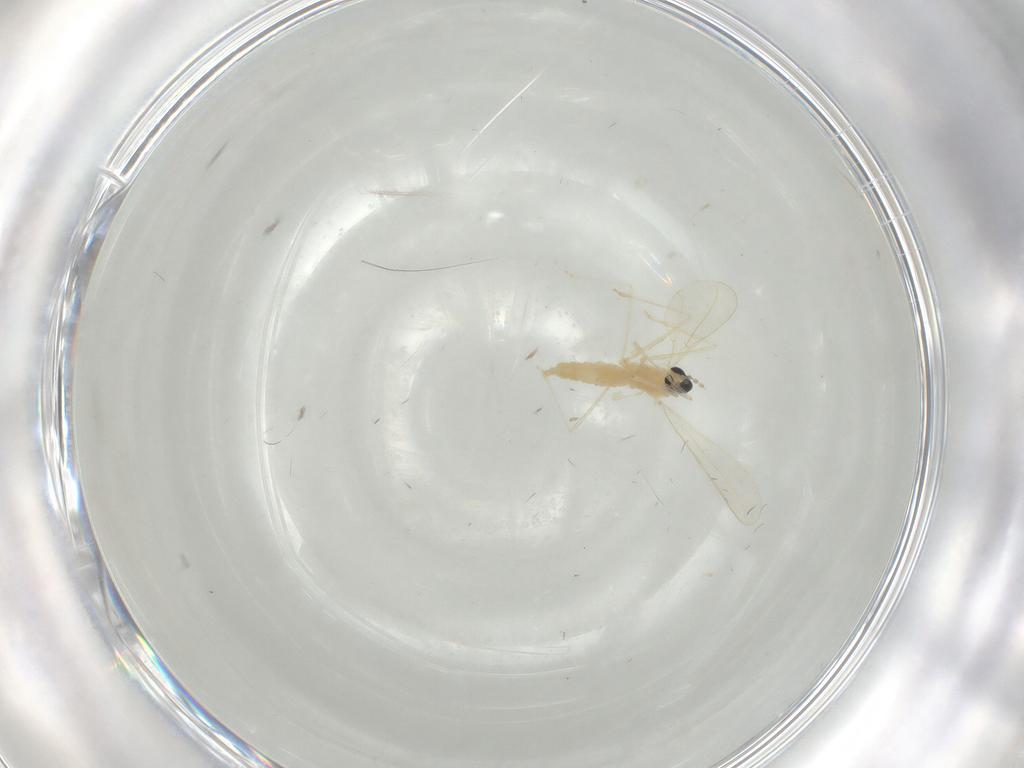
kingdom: Animalia
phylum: Arthropoda
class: Insecta
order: Diptera
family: Cecidomyiidae
